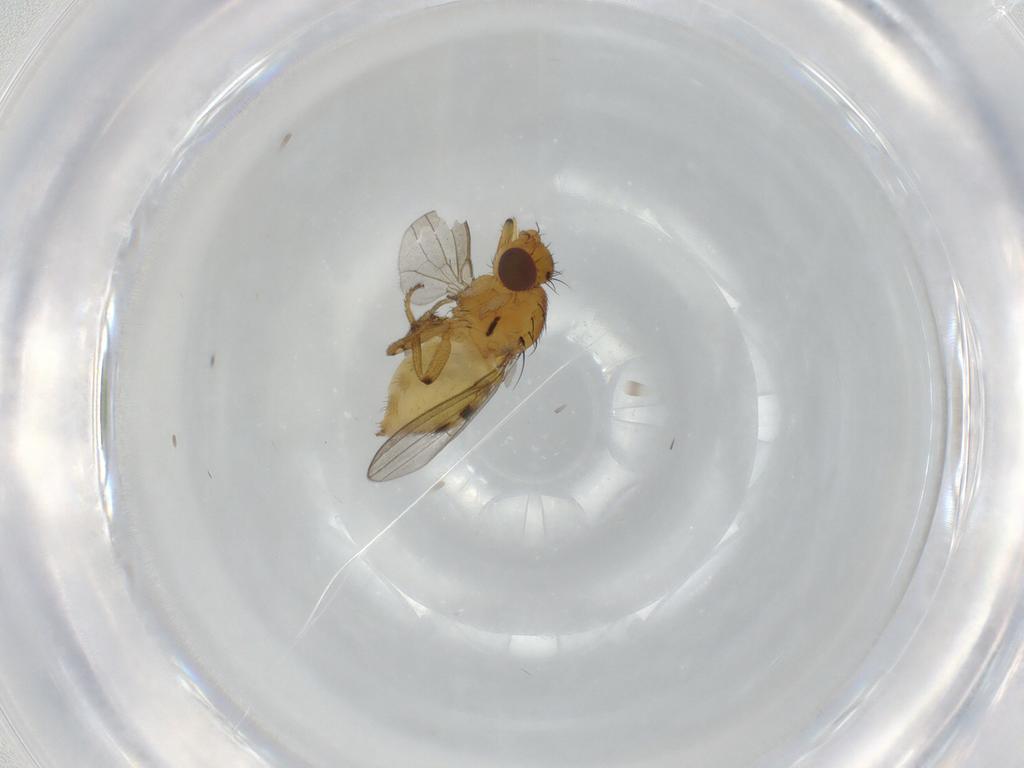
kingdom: Animalia
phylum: Arthropoda
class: Insecta
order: Diptera
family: Milichiidae
